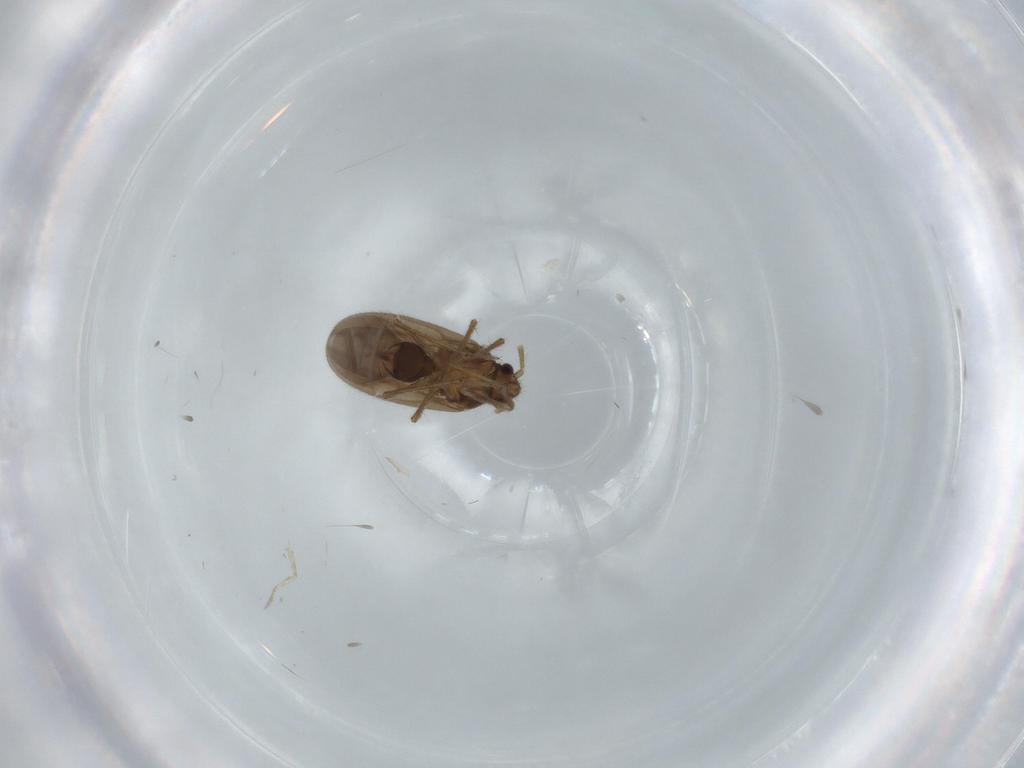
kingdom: Animalia
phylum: Arthropoda
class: Insecta
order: Hemiptera
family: Ceratocombidae
